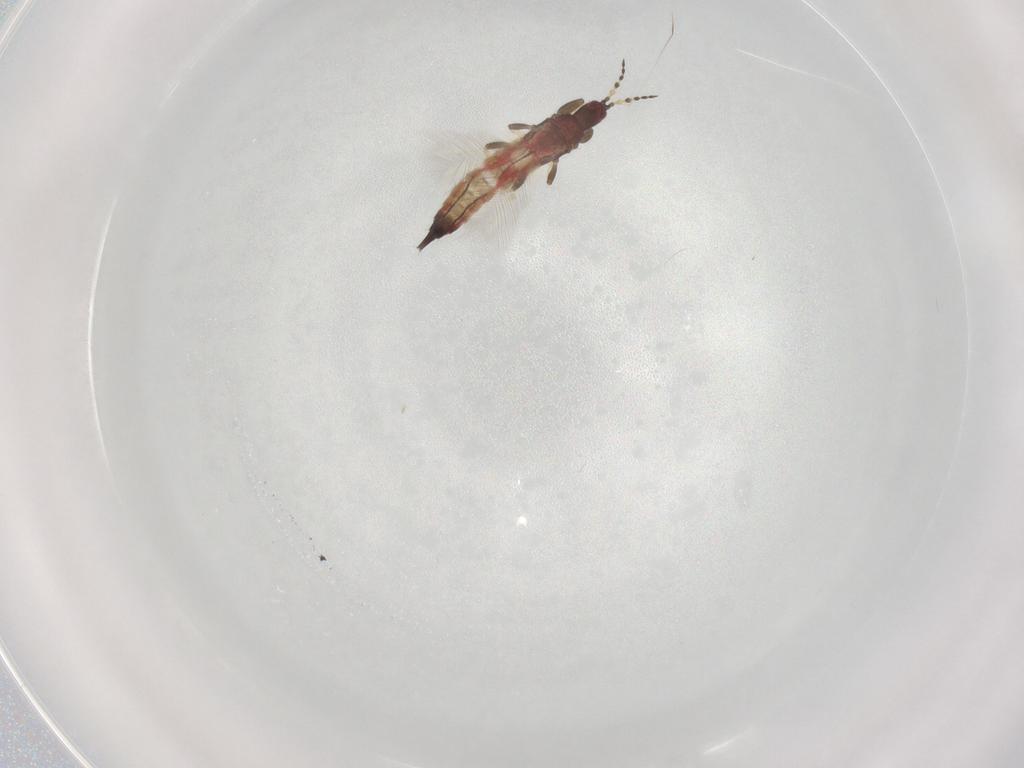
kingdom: Animalia
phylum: Arthropoda
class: Insecta
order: Thysanoptera
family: Phlaeothripidae
